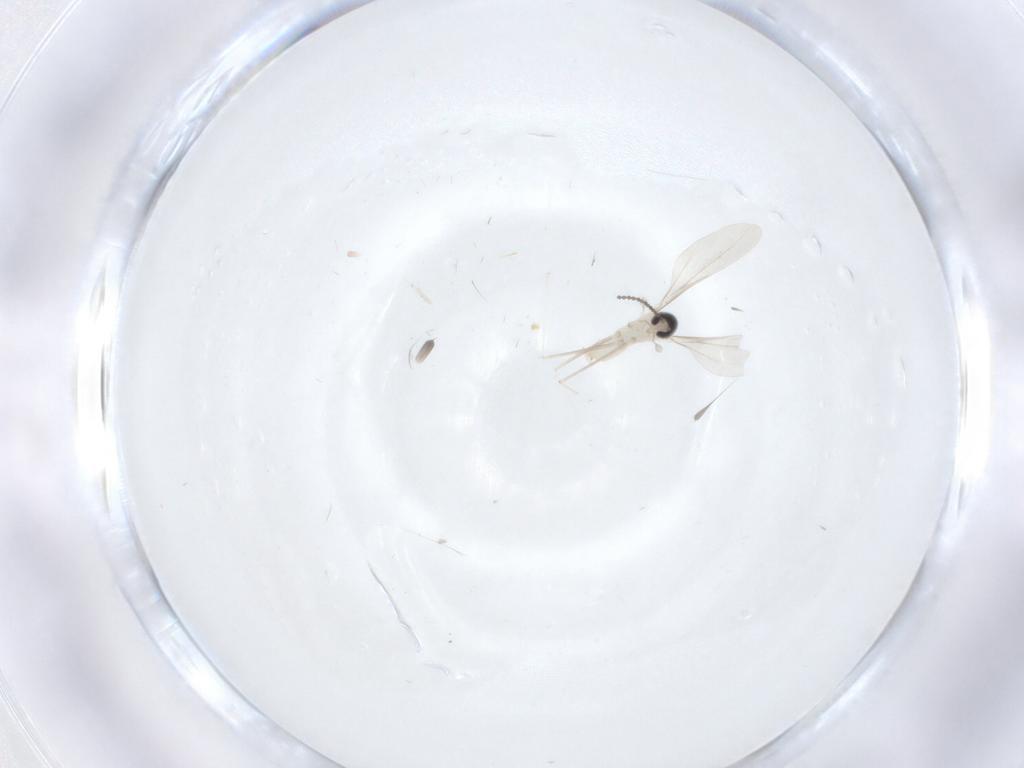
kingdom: Animalia
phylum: Arthropoda
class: Insecta
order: Diptera
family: Cecidomyiidae
